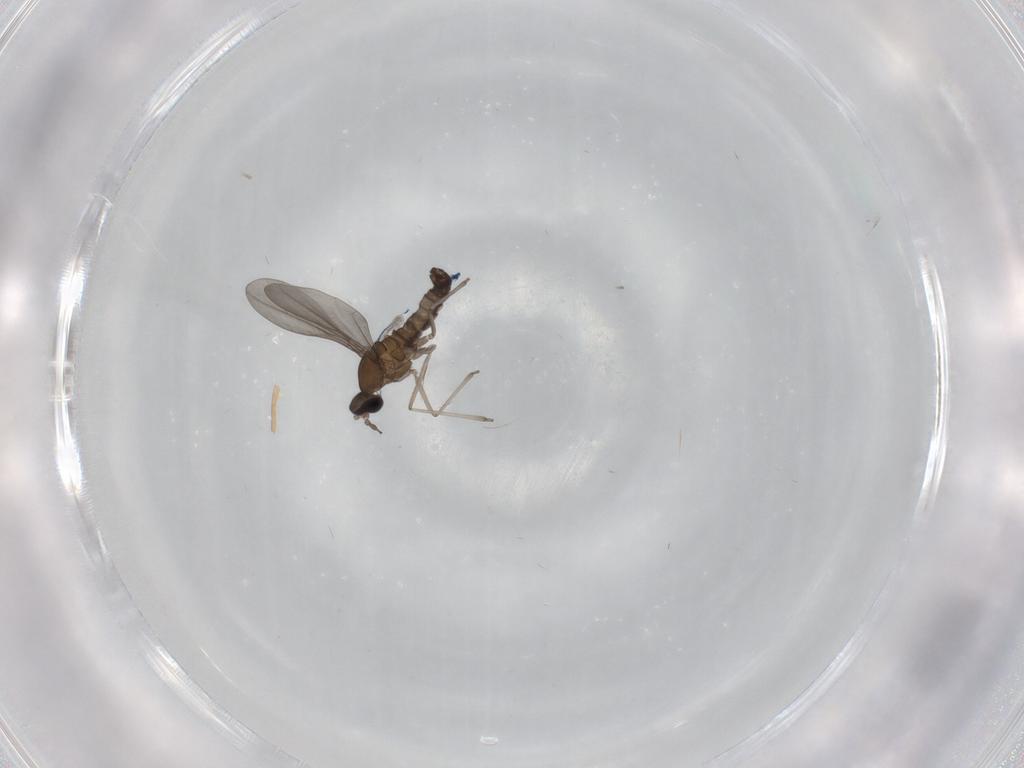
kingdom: Animalia
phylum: Arthropoda
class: Insecta
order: Diptera
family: Cecidomyiidae
